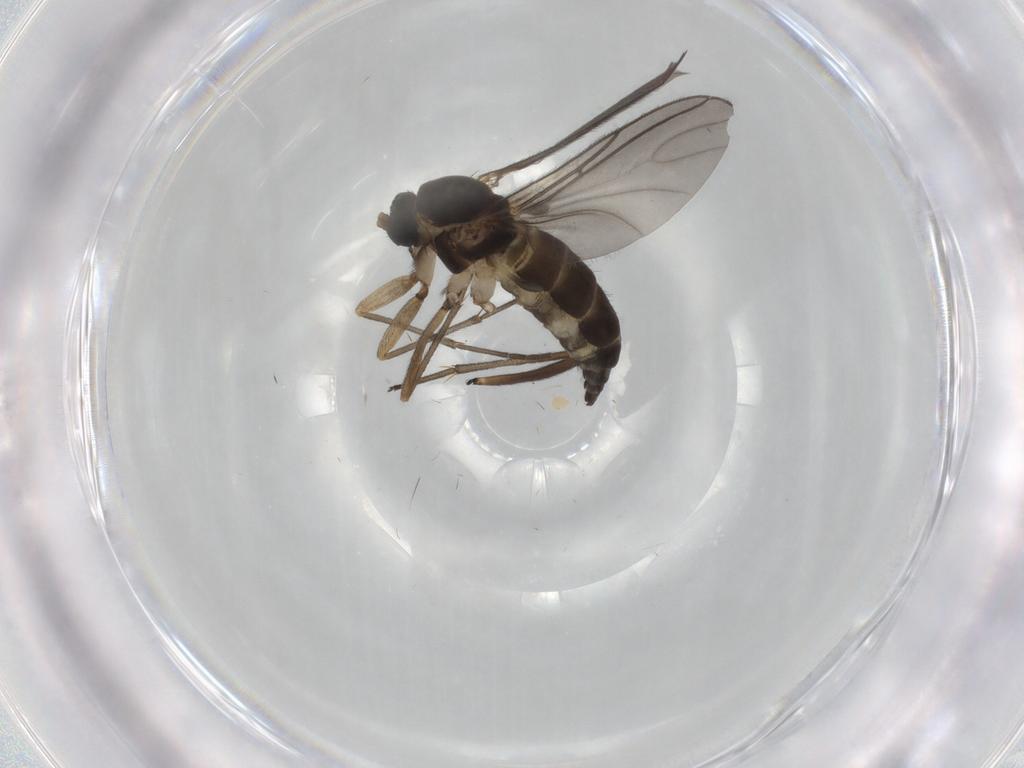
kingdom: Animalia
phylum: Arthropoda
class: Insecta
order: Diptera
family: Sciaridae
